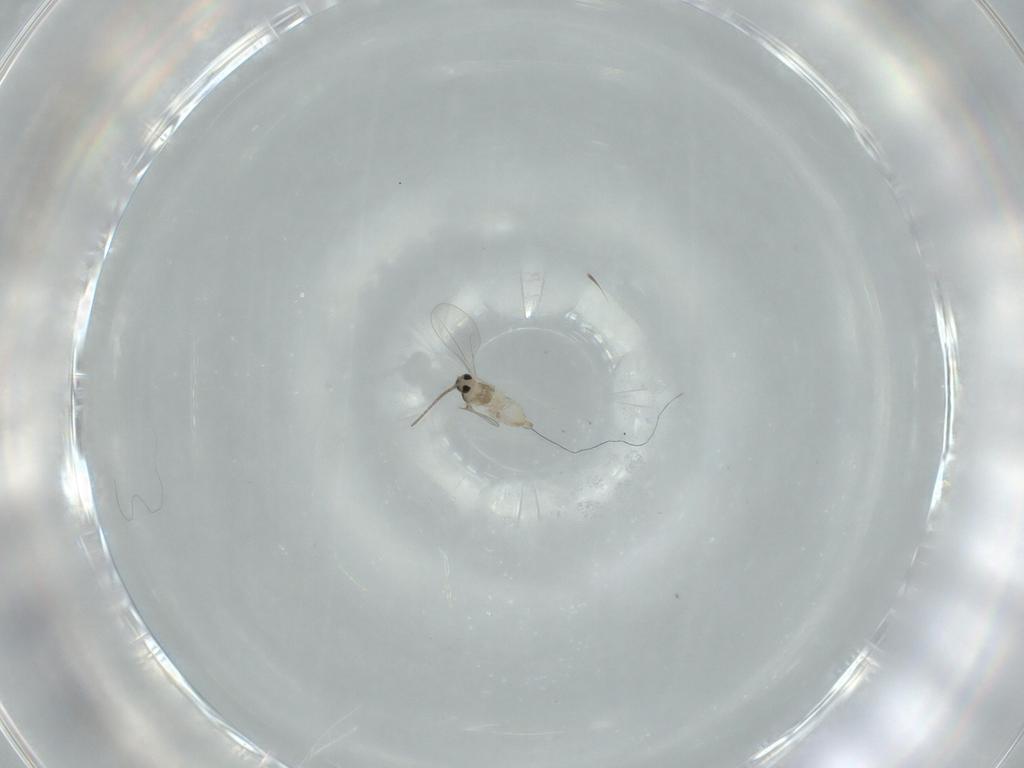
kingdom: Animalia
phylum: Arthropoda
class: Insecta
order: Diptera
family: Cecidomyiidae
